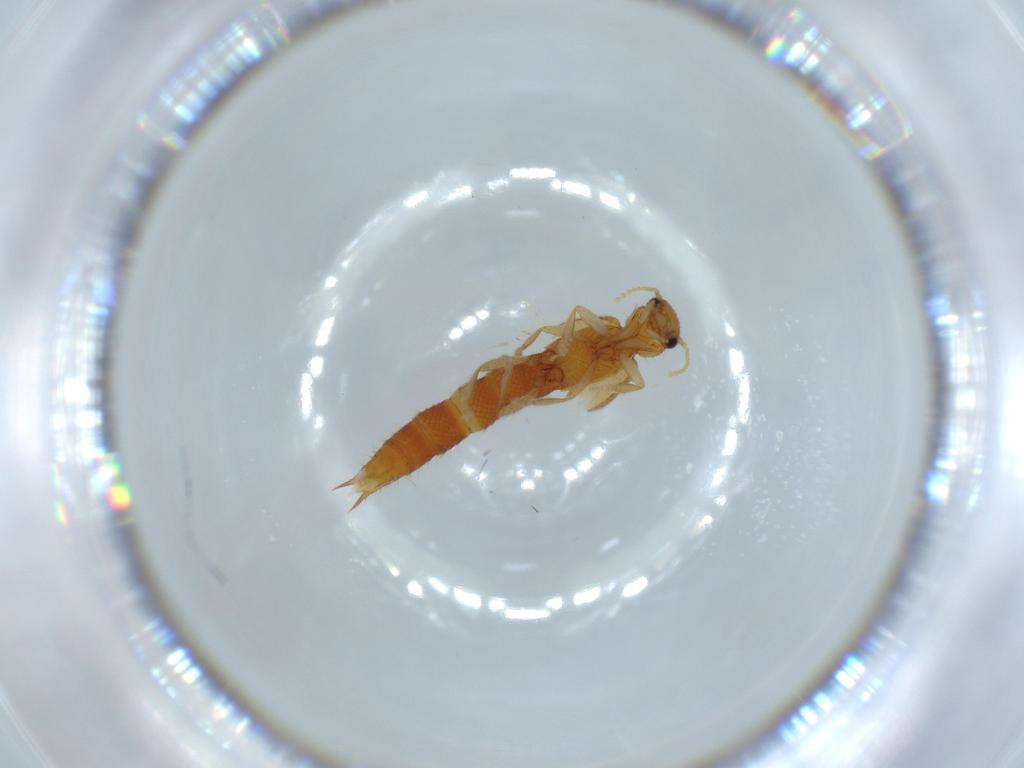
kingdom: Animalia
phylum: Arthropoda
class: Insecta
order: Coleoptera
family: Staphylinidae
